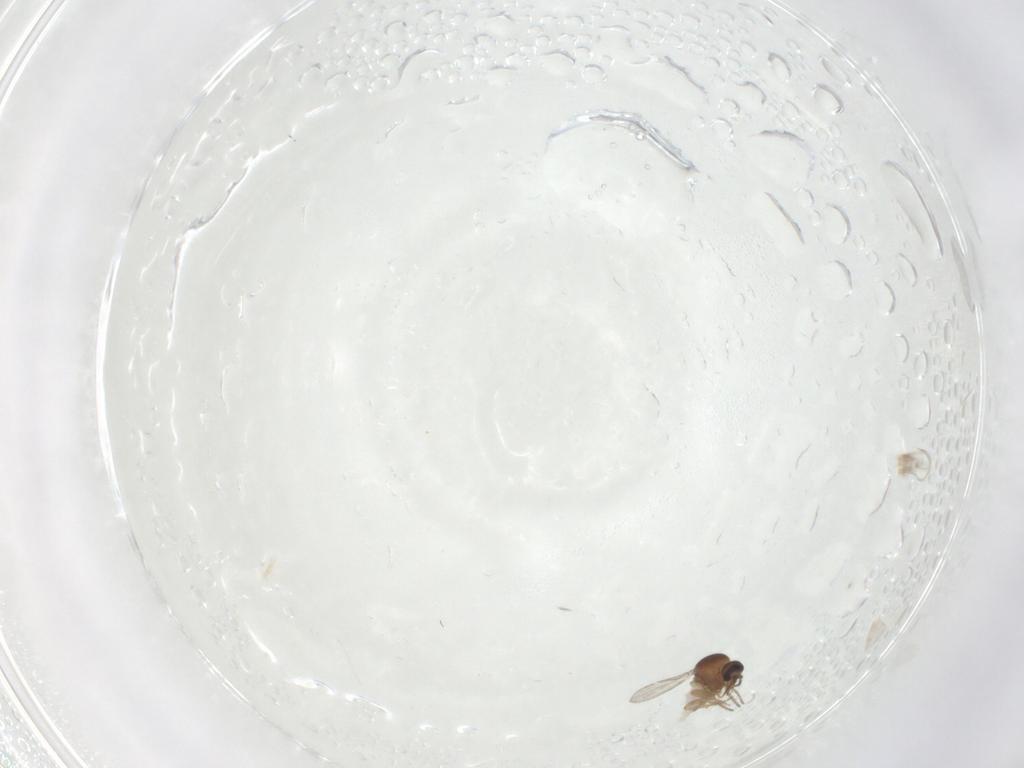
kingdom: Animalia
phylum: Arthropoda
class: Insecta
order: Diptera
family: Ceratopogonidae
